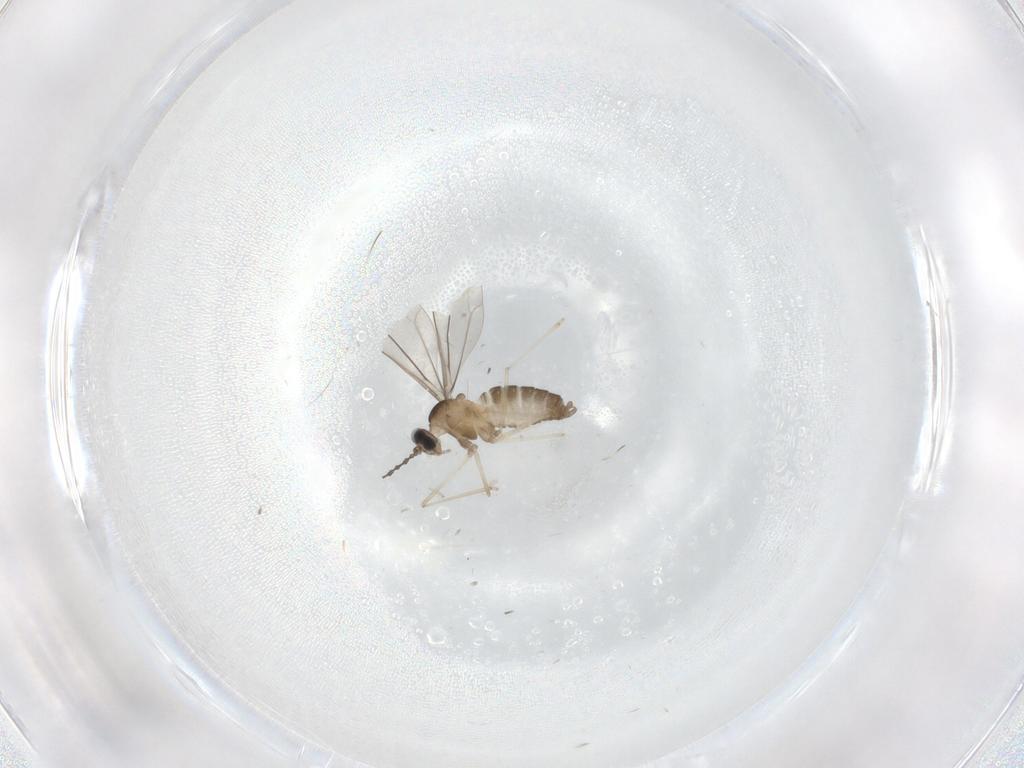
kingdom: Animalia
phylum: Arthropoda
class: Insecta
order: Diptera
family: Cecidomyiidae
